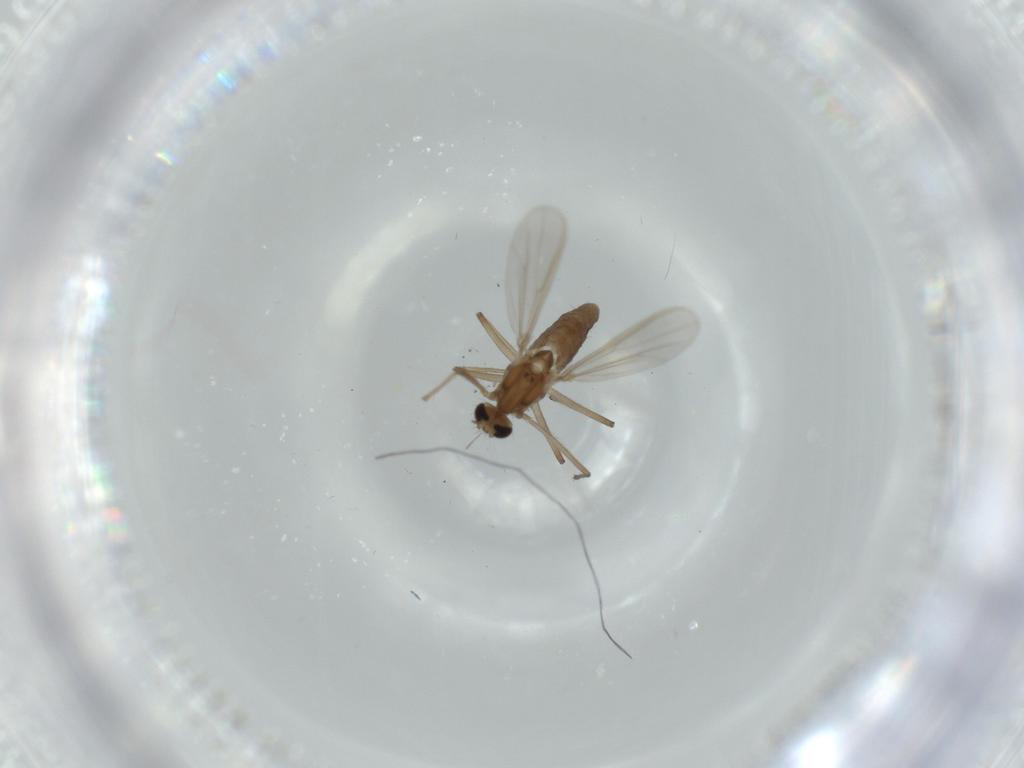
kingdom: Animalia
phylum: Arthropoda
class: Insecta
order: Diptera
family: Chironomidae
